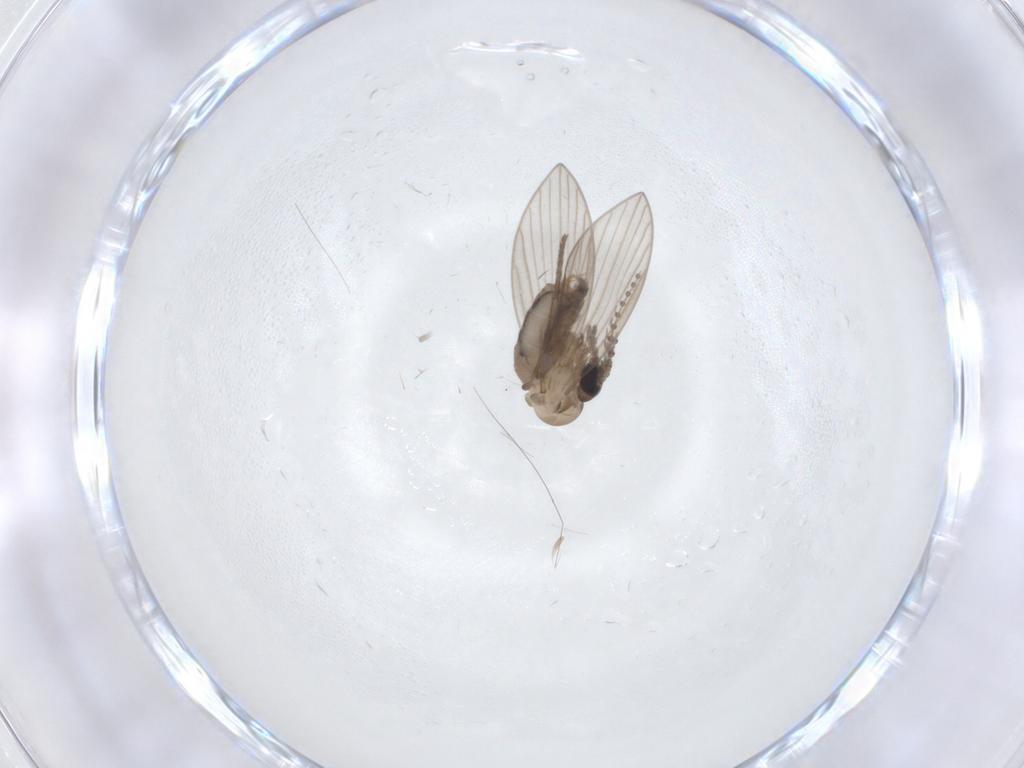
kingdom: Animalia
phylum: Arthropoda
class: Insecta
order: Diptera
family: Psychodidae
